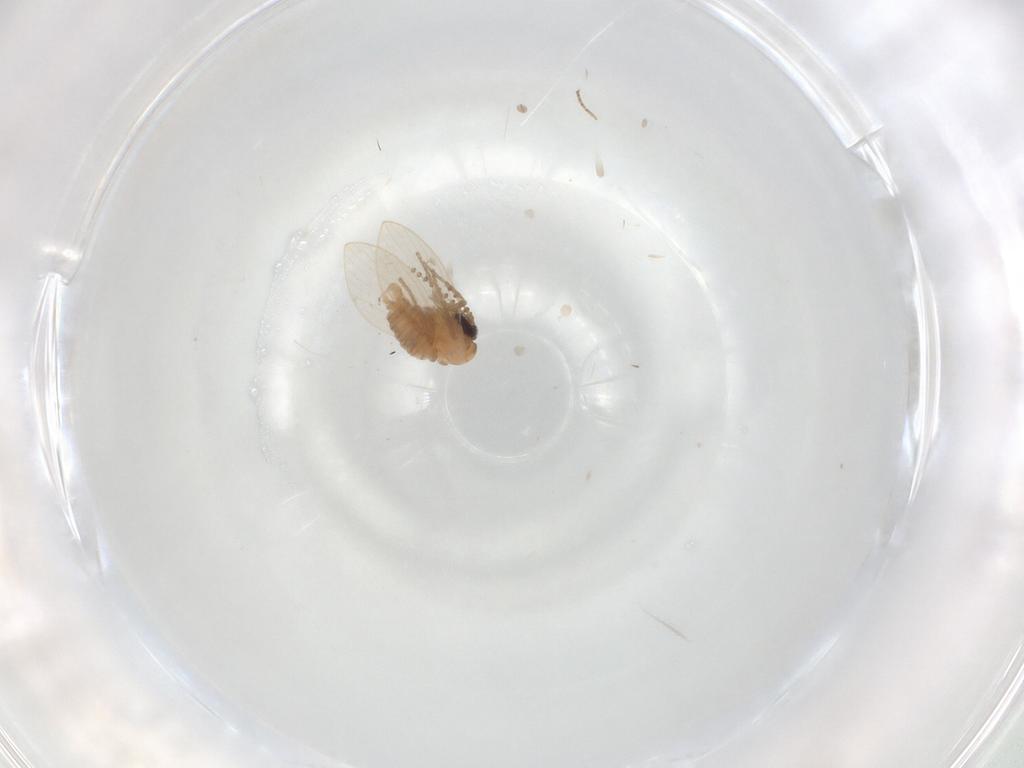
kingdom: Animalia
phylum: Arthropoda
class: Insecta
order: Diptera
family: Psychodidae
